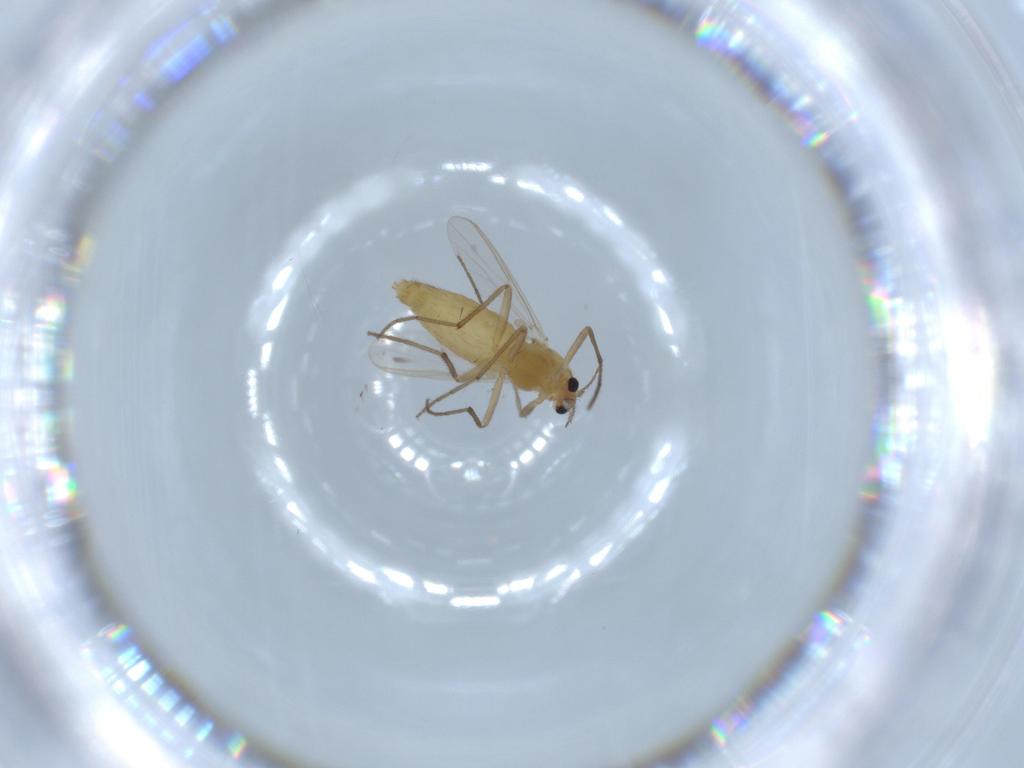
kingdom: Animalia
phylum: Arthropoda
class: Insecta
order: Diptera
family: Chironomidae
